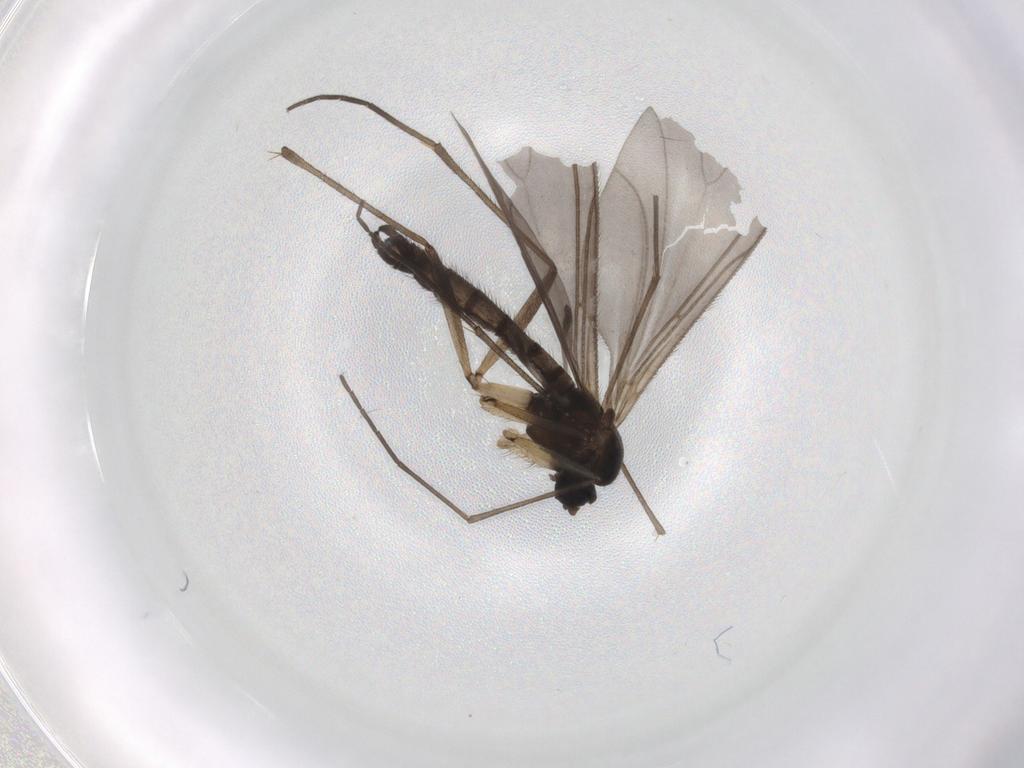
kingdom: Animalia
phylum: Arthropoda
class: Insecta
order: Diptera
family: Sciaridae
